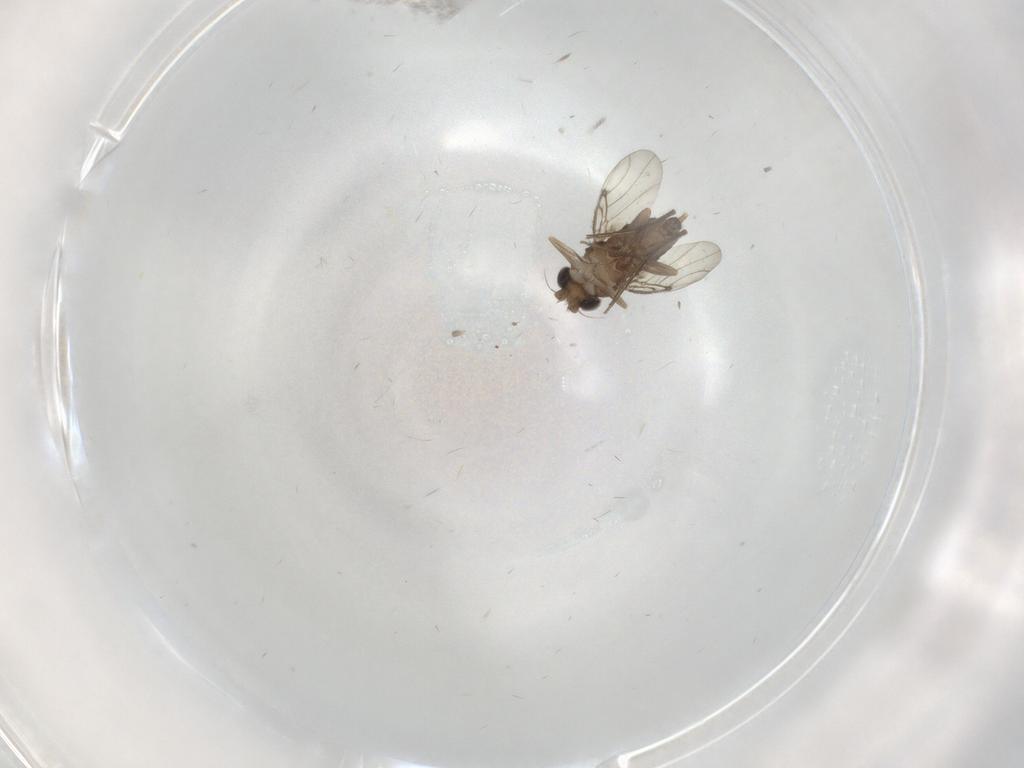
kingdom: Animalia
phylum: Arthropoda
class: Insecta
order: Diptera
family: Phoridae
